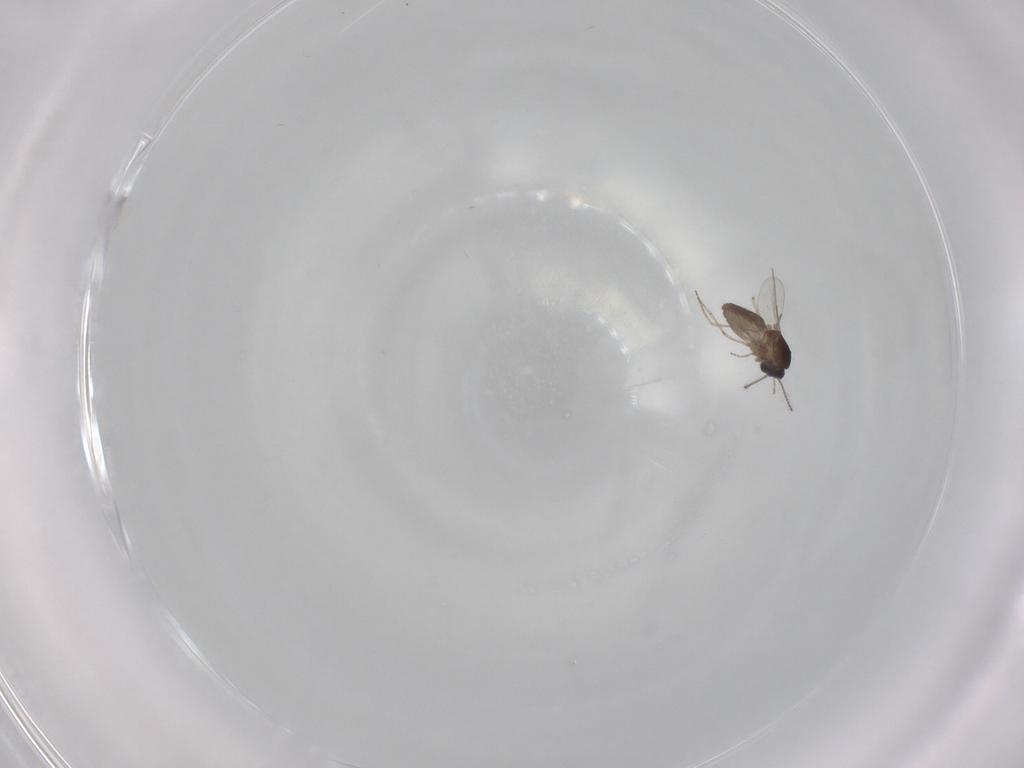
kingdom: Animalia
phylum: Arthropoda
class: Insecta
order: Diptera
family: Ceratopogonidae
